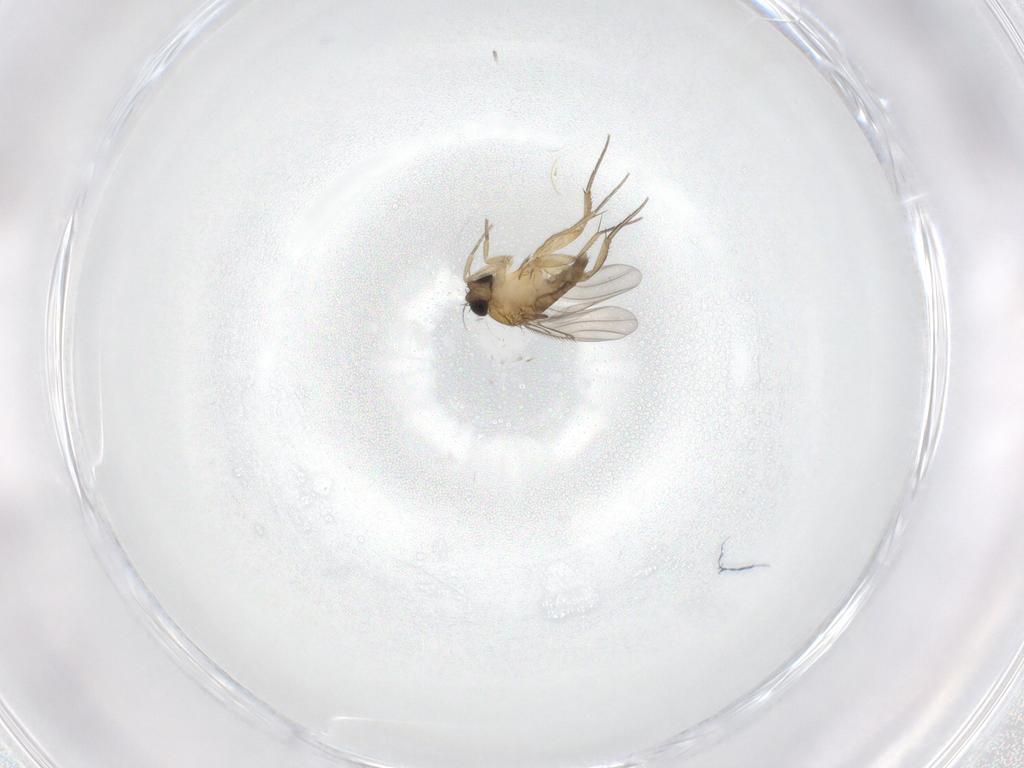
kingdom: Animalia
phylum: Arthropoda
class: Insecta
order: Diptera
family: Phoridae
